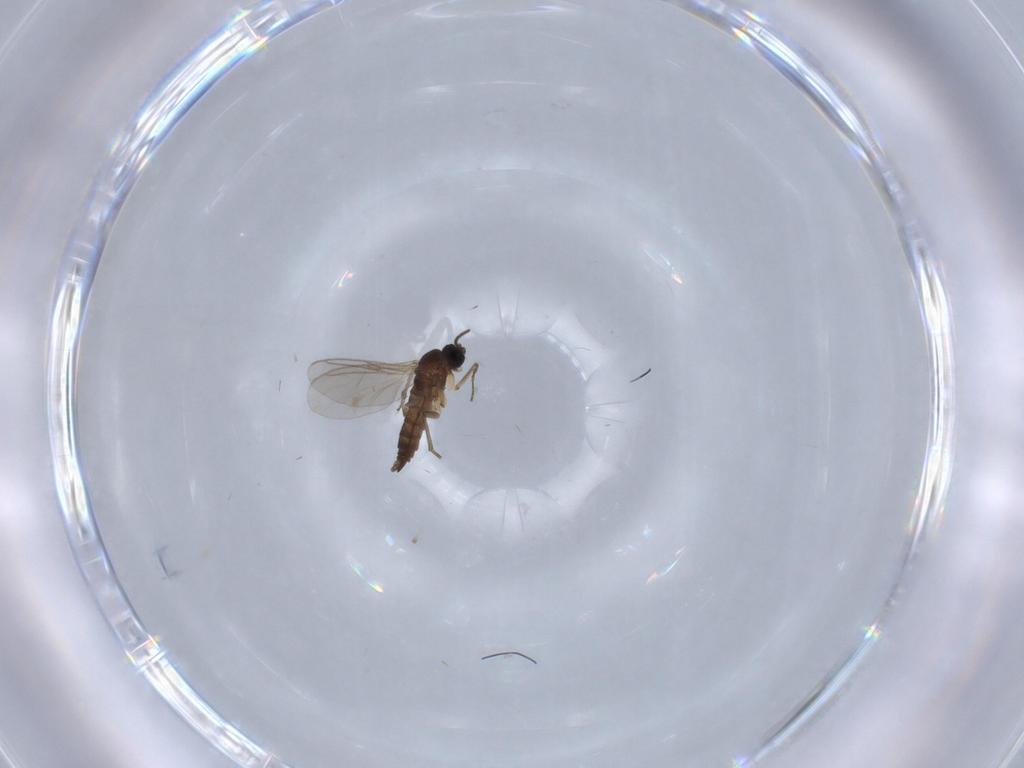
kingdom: Animalia
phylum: Arthropoda
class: Insecta
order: Diptera
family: Sciaridae
